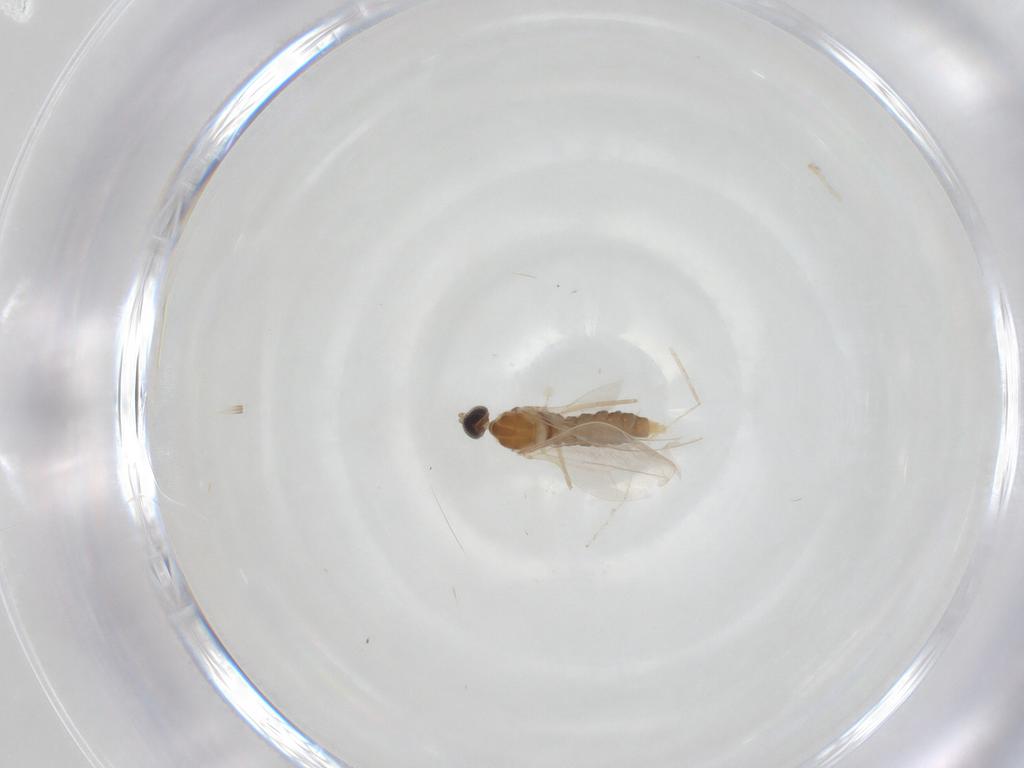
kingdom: Animalia
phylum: Arthropoda
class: Insecta
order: Diptera
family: Cecidomyiidae
